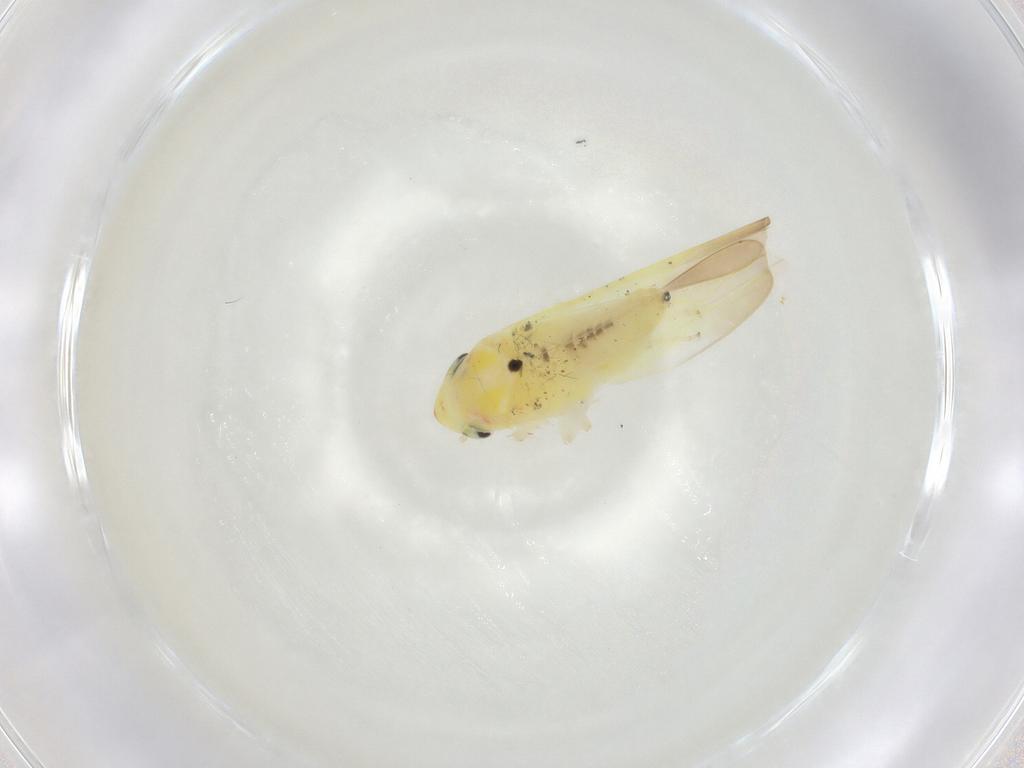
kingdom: Animalia
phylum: Arthropoda
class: Insecta
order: Hemiptera
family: Cicadellidae
